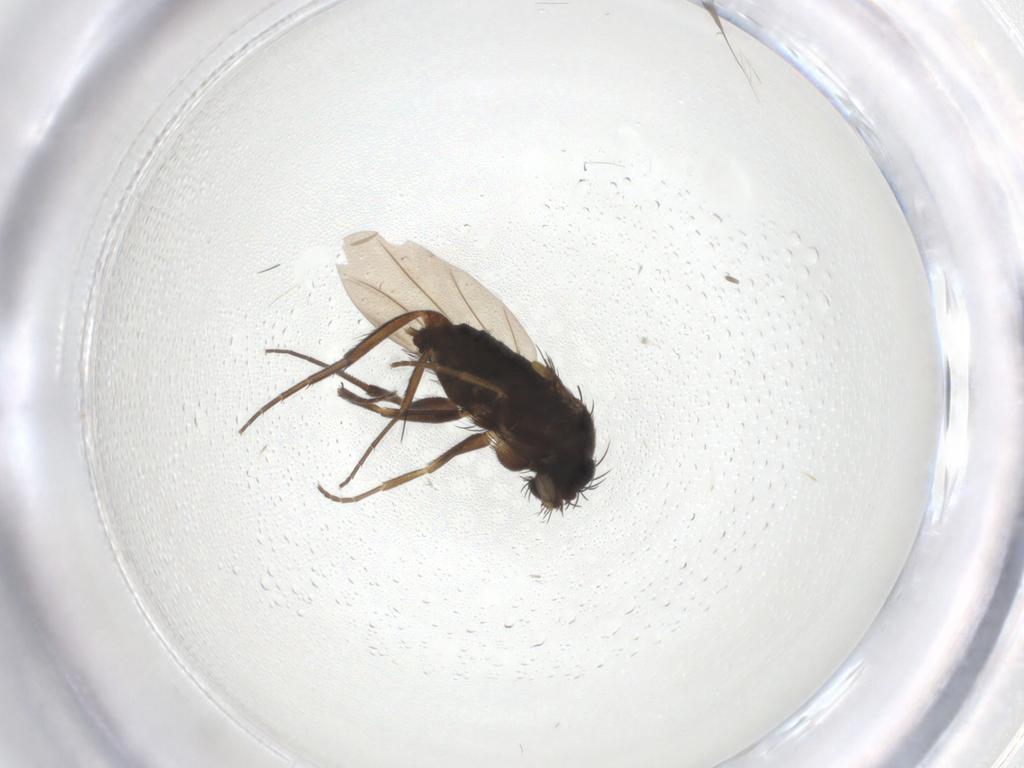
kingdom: Animalia
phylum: Arthropoda
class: Insecta
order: Diptera
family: Phoridae
